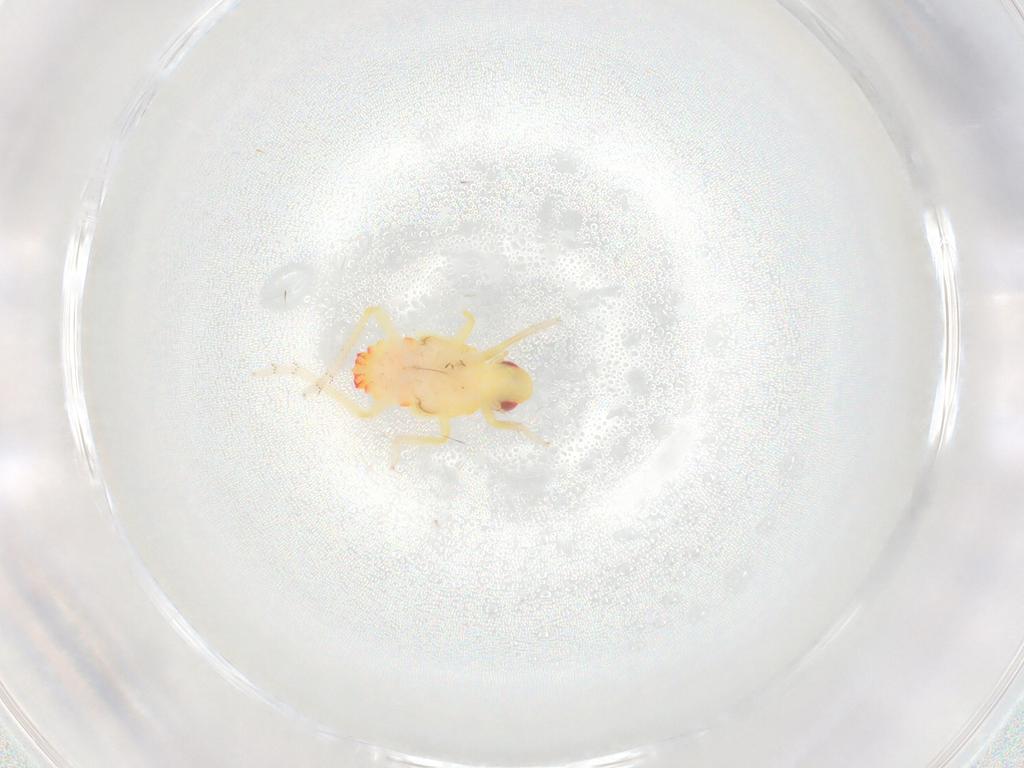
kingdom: Animalia
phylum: Arthropoda
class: Insecta
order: Hemiptera
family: Tropiduchidae
